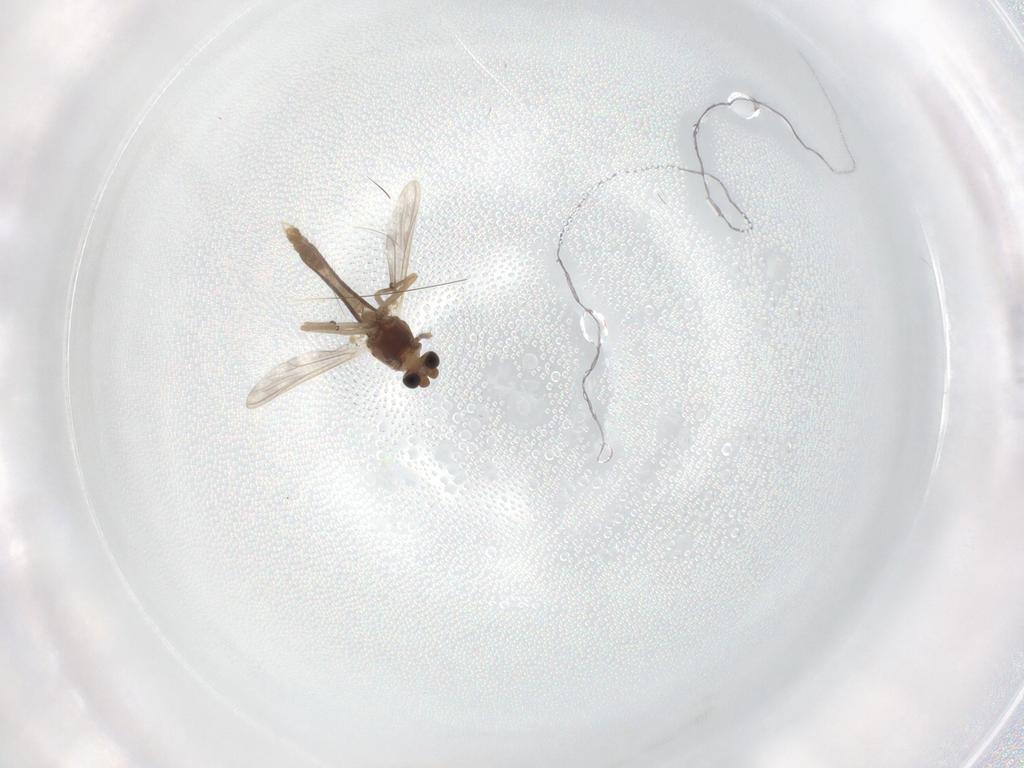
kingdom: Animalia
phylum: Arthropoda
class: Insecta
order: Diptera
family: Chironomidae
